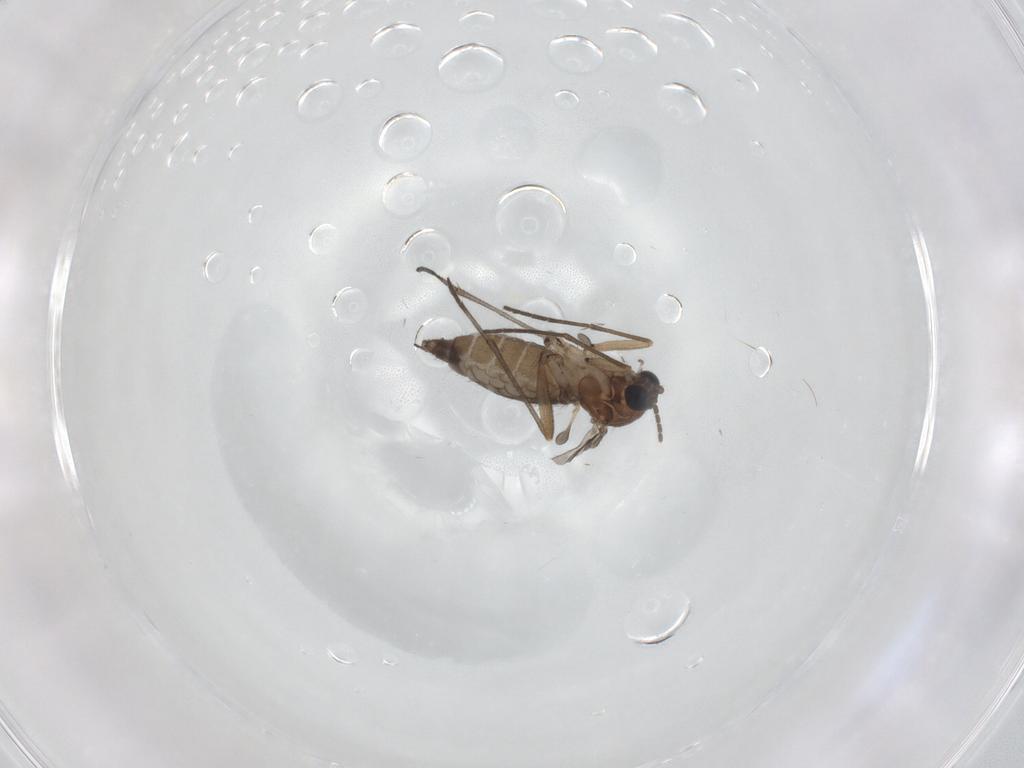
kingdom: Animalia
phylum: Arthropoda
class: Insecta
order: Diptera
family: Cecidomyiidae
